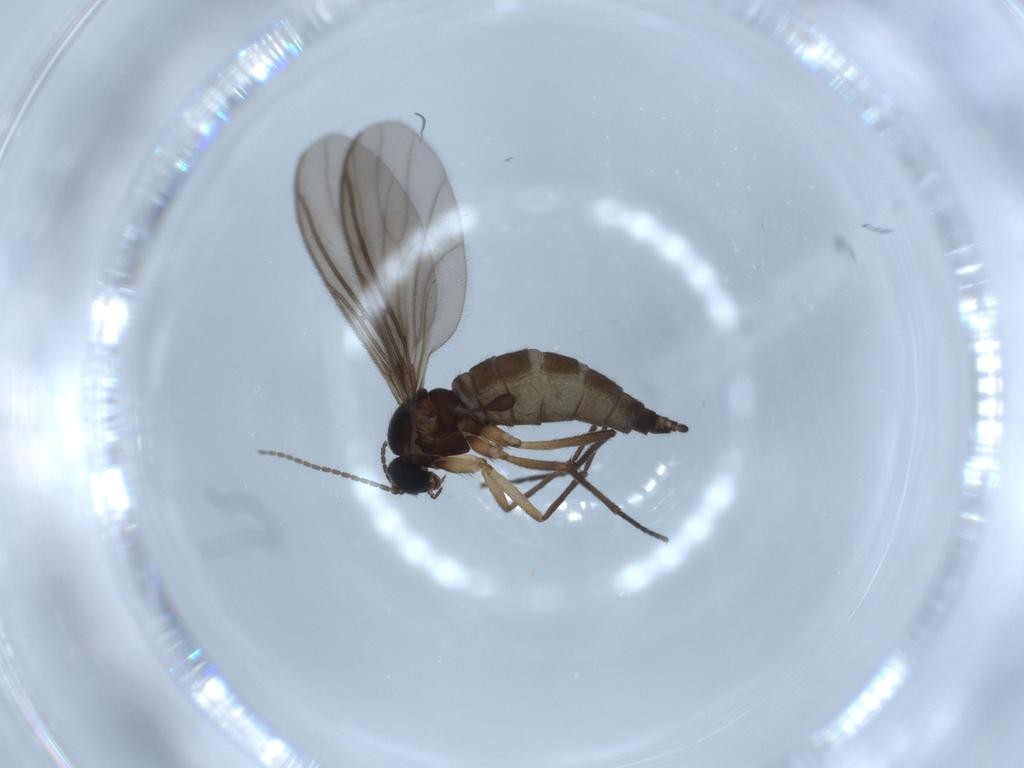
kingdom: Animalia
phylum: Arthropoda
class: Insecta
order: Diptera
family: Chironomidae
